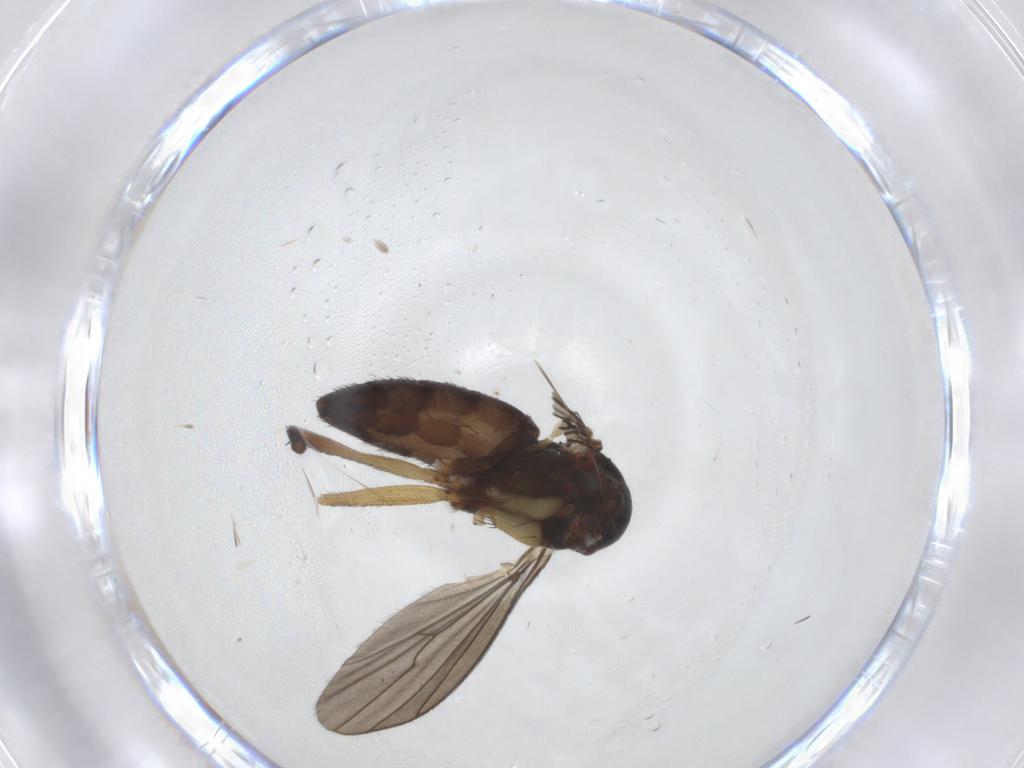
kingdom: Animalia
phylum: Arthropoda
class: Insecta
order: Diptera
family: Dolichopodidae
